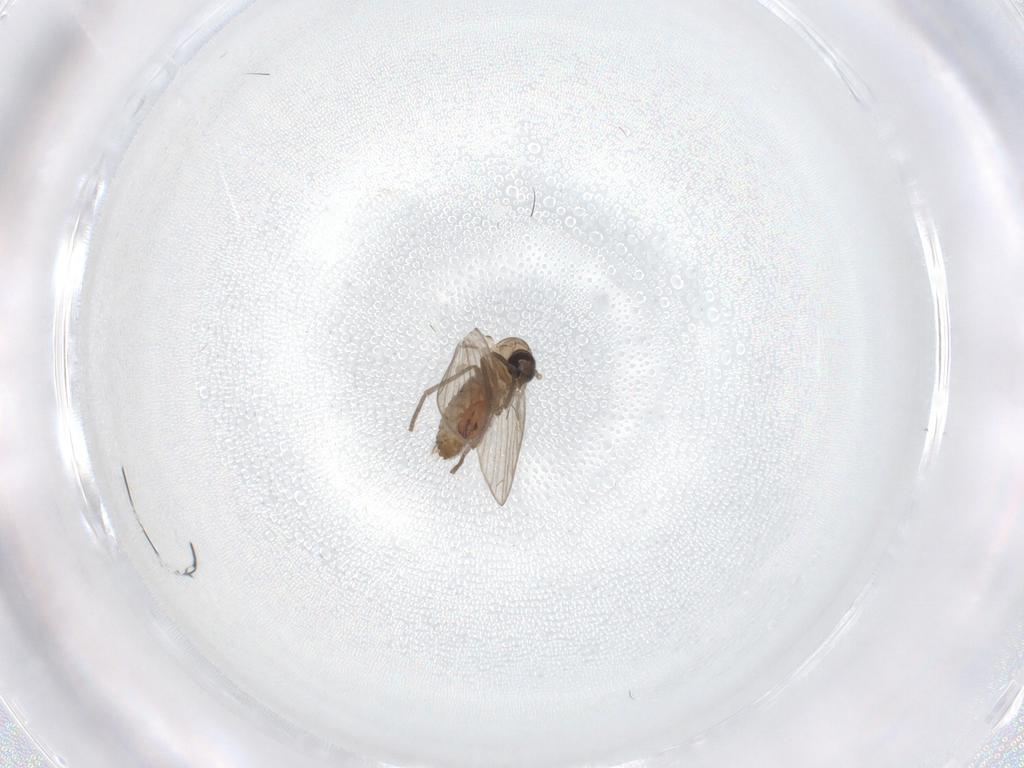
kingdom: Animalia
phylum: Arthropoda
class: Insecta
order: Diptera
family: Psychodidae
